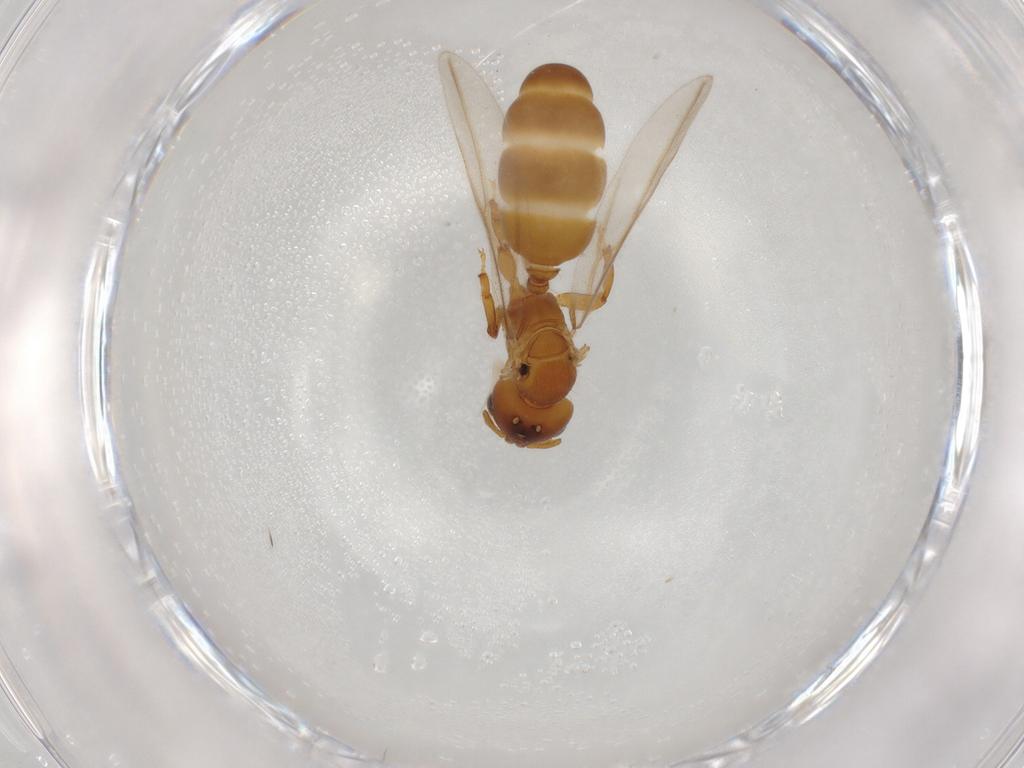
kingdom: Animalia
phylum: Arthropoda
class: Insecta
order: Hymenoptera
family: Formicidae
